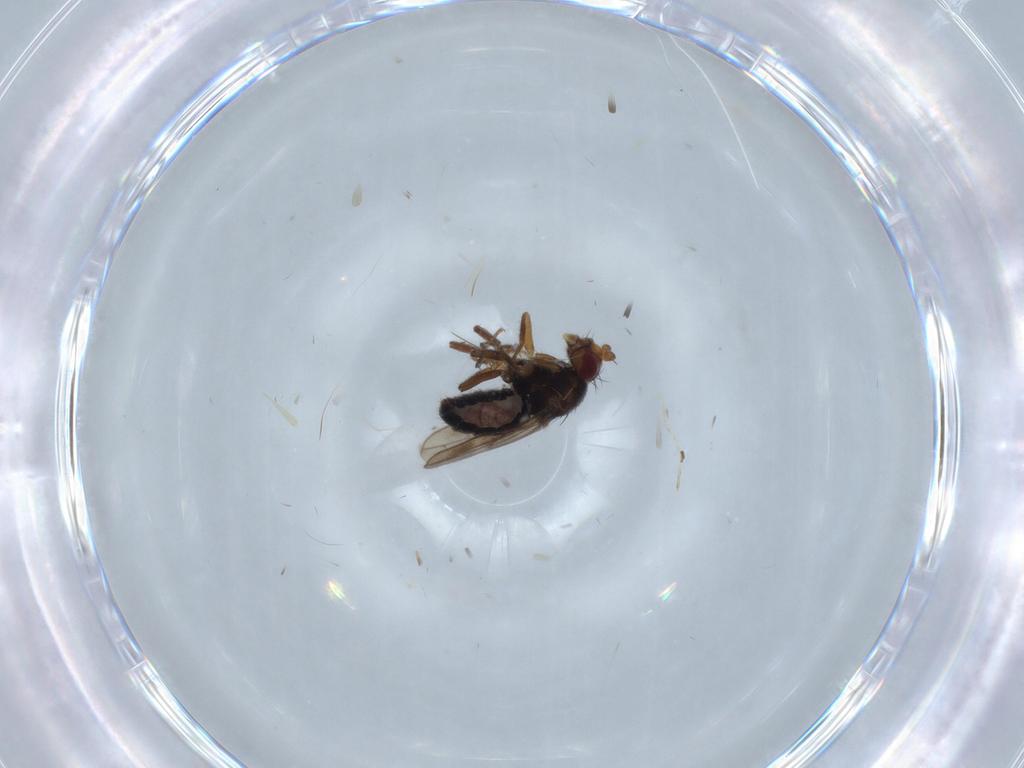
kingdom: Animalia
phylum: Arthropoda
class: Insecta
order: Diptera
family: Sphaeroceridae
